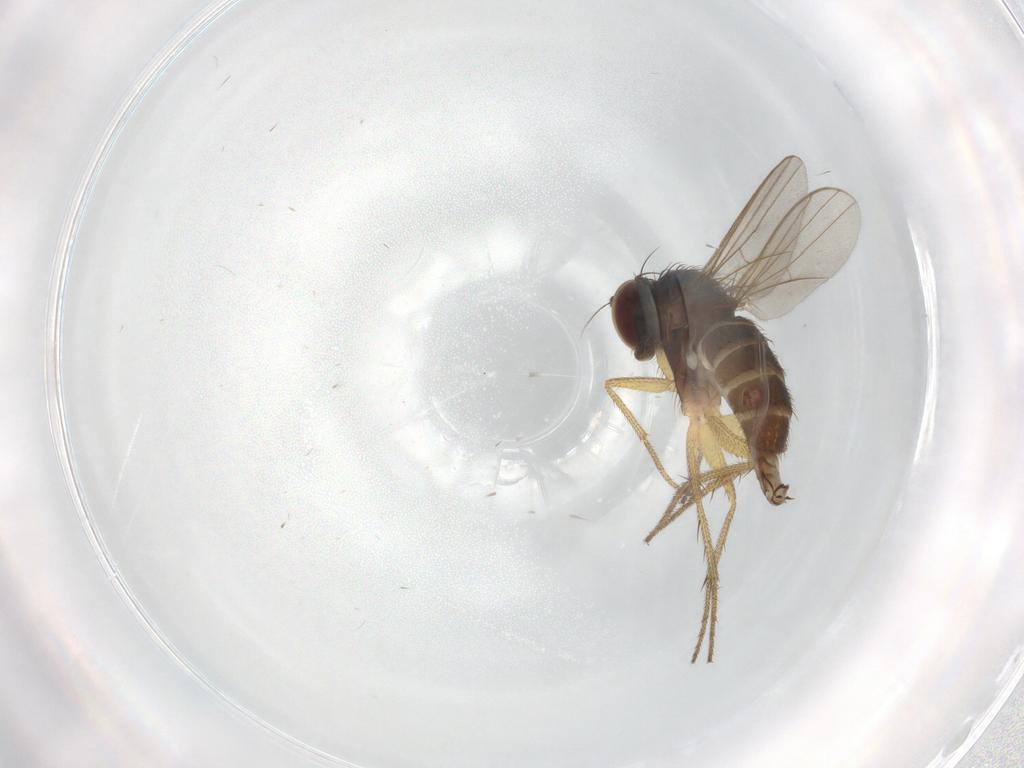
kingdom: Animalia
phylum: Arthropoda
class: Insecta
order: Diptera
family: Dolichopodidae
